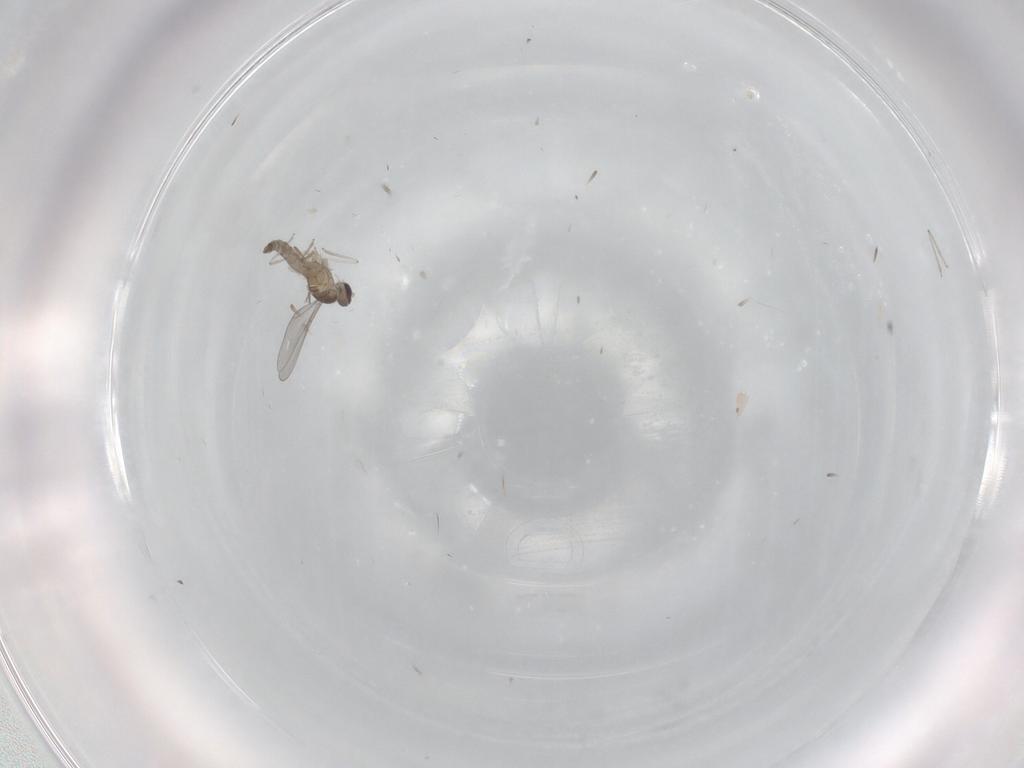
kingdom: Animalia
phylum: Arthropoda
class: Insecta
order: Diptera
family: Cecidomyiidae
